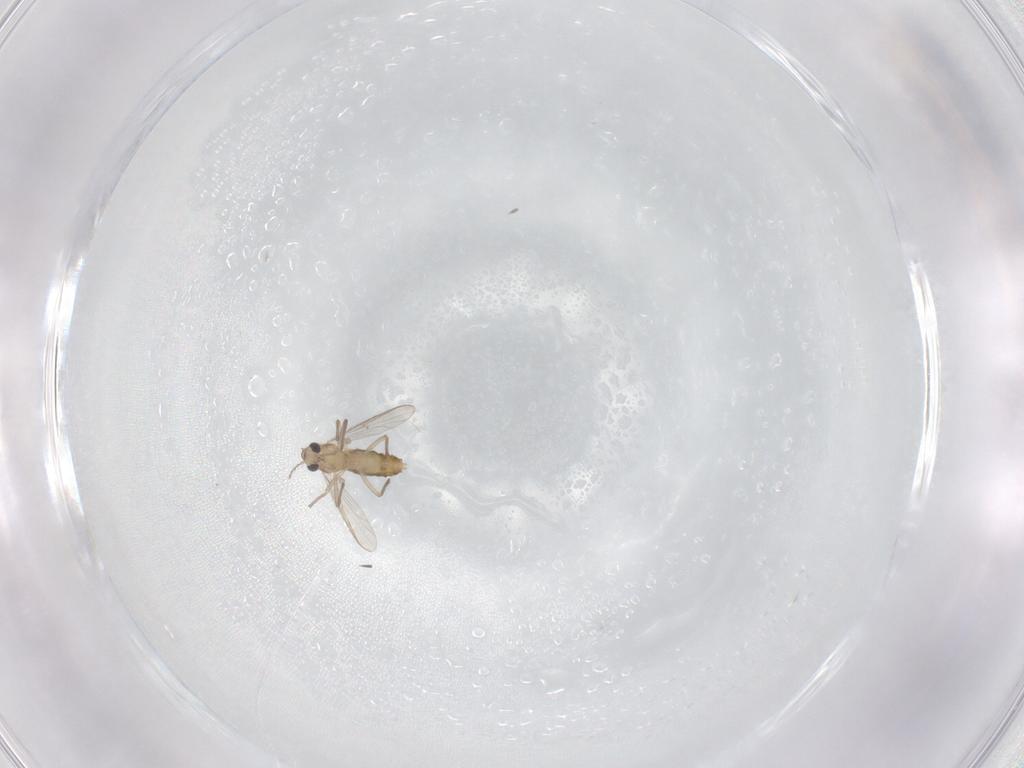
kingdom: Animalia
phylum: Arthropoda
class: Insecta
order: Diptera
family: Chironomidae
